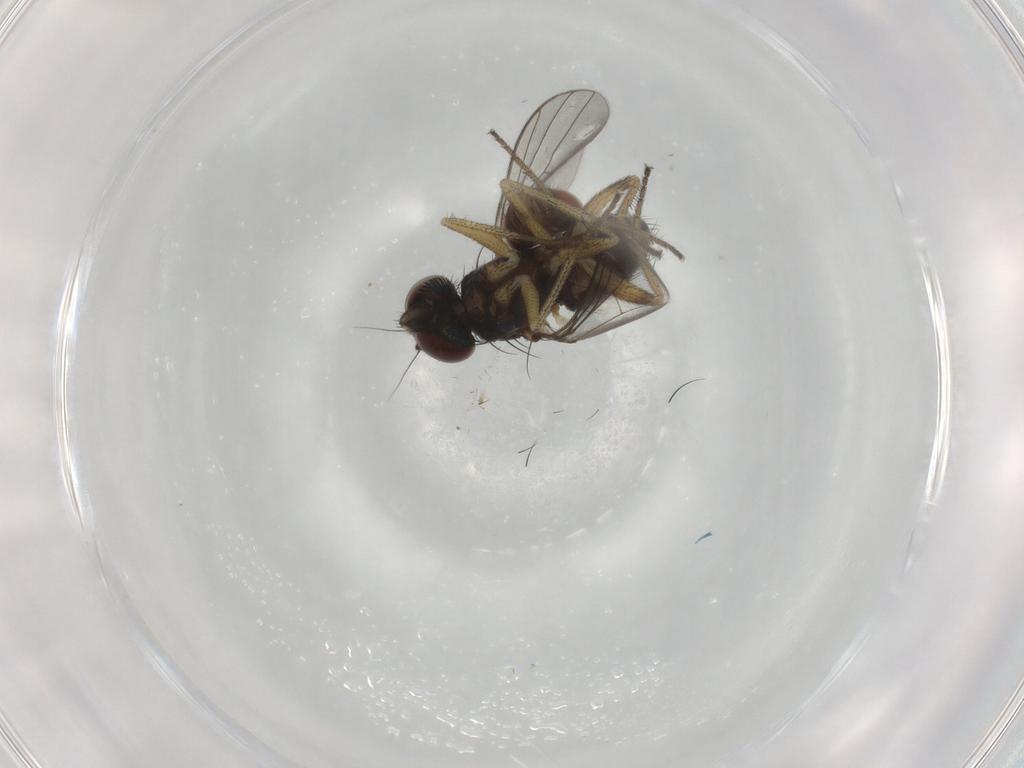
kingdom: Animalia
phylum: Arthropoda
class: Insecta
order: Diptera
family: Dolichopodidae
